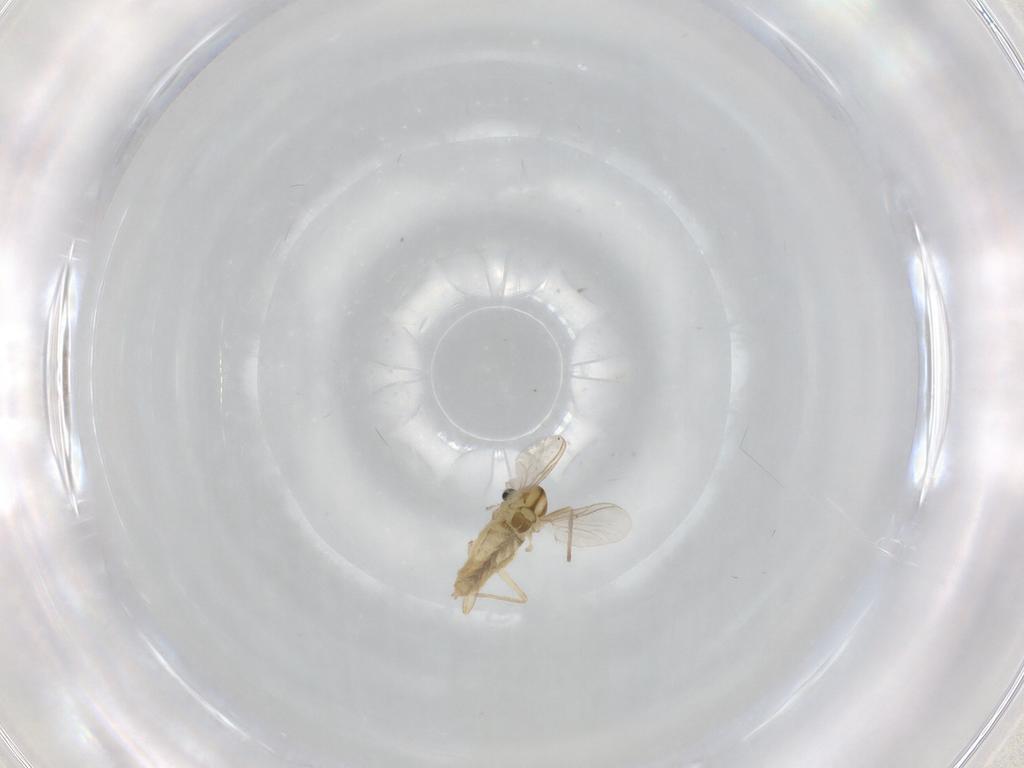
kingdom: Animalia
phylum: Arthropoda
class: Insecta
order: Diptera
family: Chironomidae
